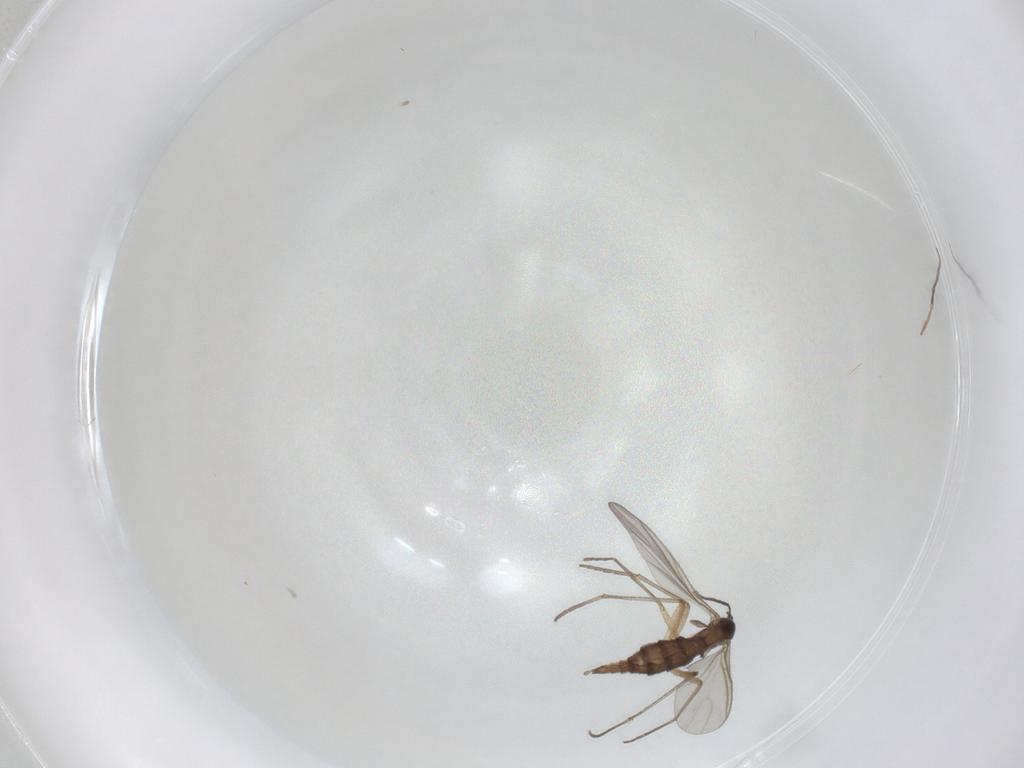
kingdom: Animalia
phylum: Arthropoda
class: Insecta
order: Diptera
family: Sciaridae
